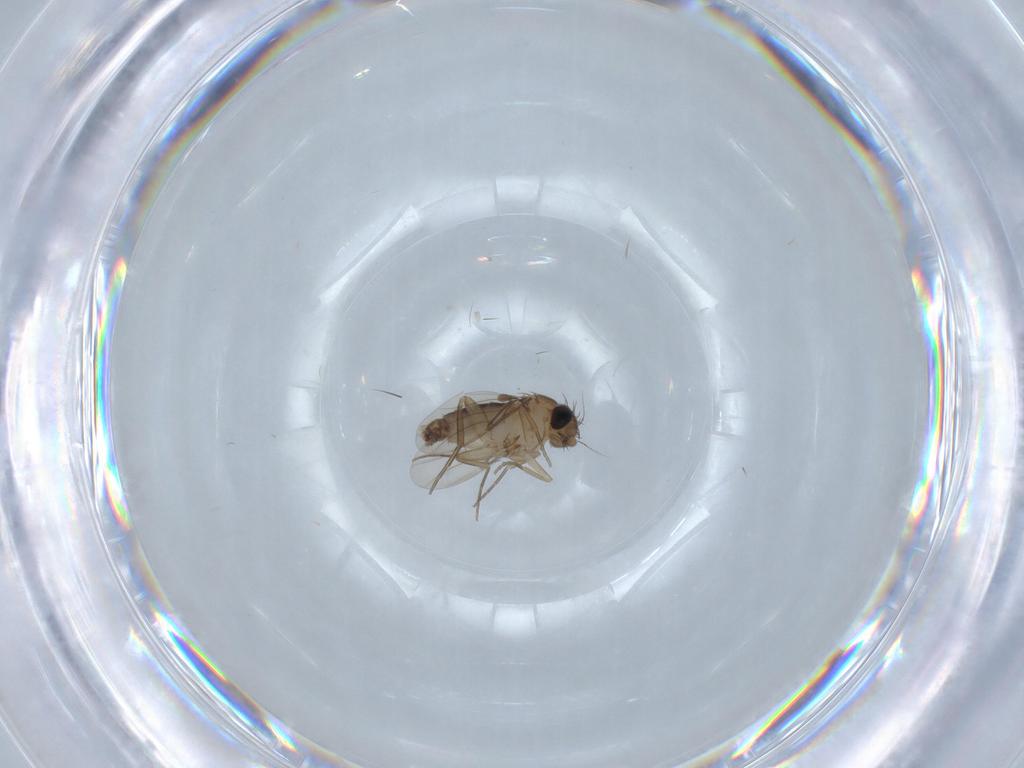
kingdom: Animalia
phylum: Arthropoda
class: Insecta
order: Diptera
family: Phoridae
